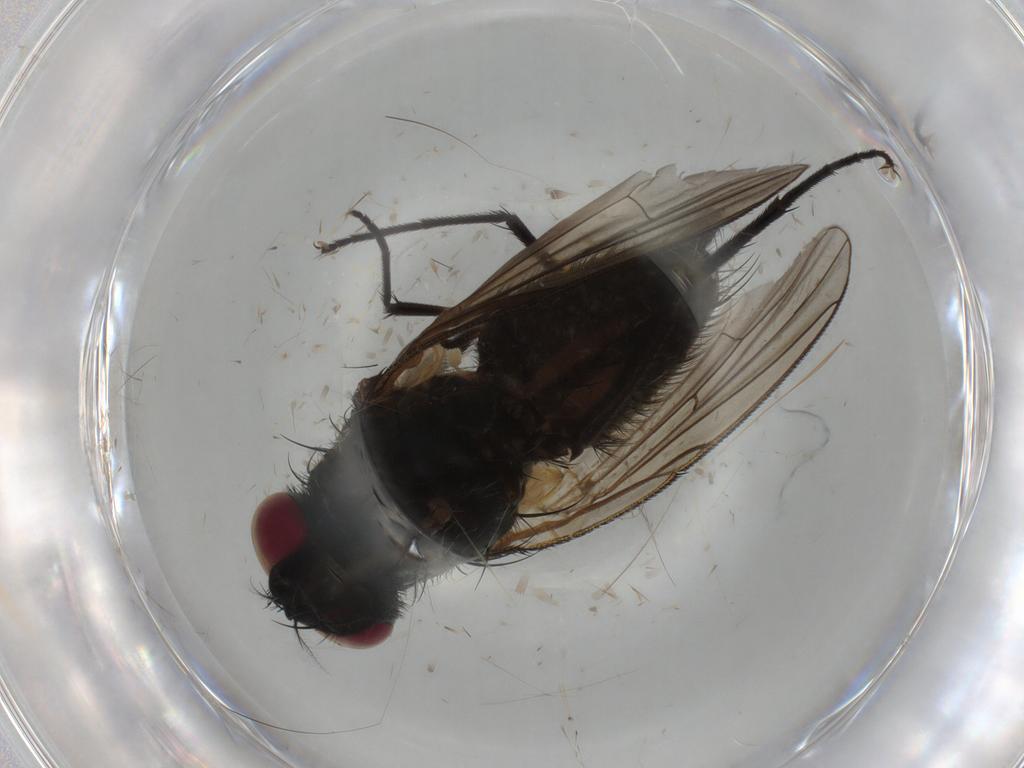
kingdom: Animalia
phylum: Arthropoda
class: Insecta
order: Diptera
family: Muscidae
